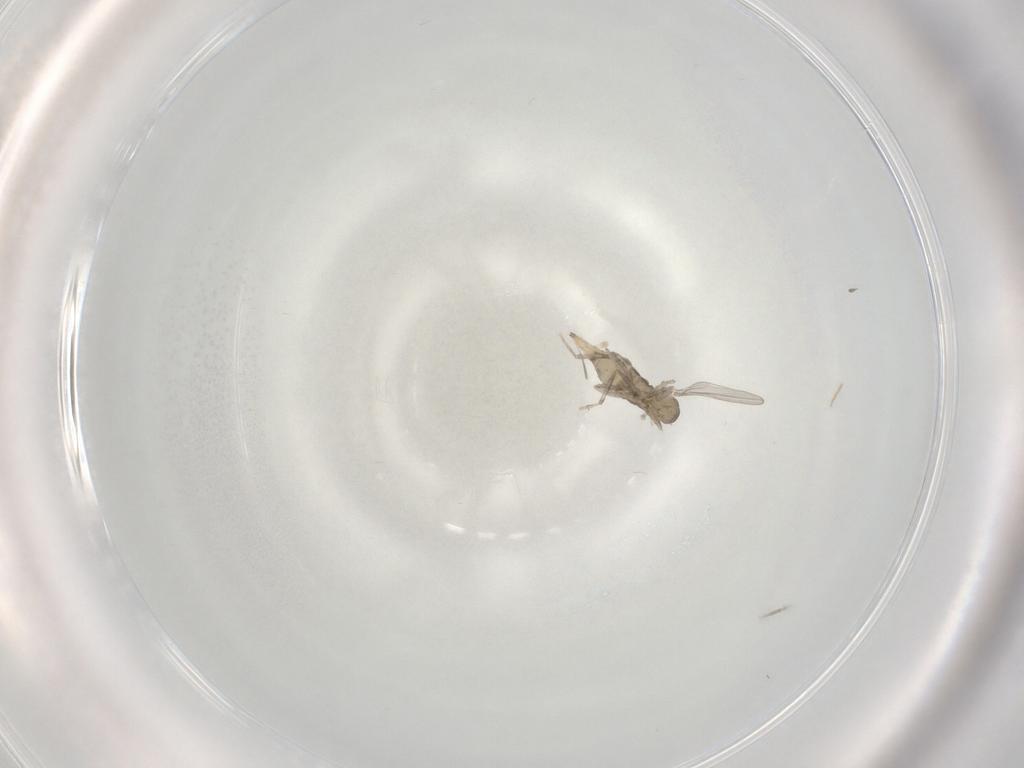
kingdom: Animalia
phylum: Arthropoda
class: Insecta
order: Diptera
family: Cecidomyiidae
